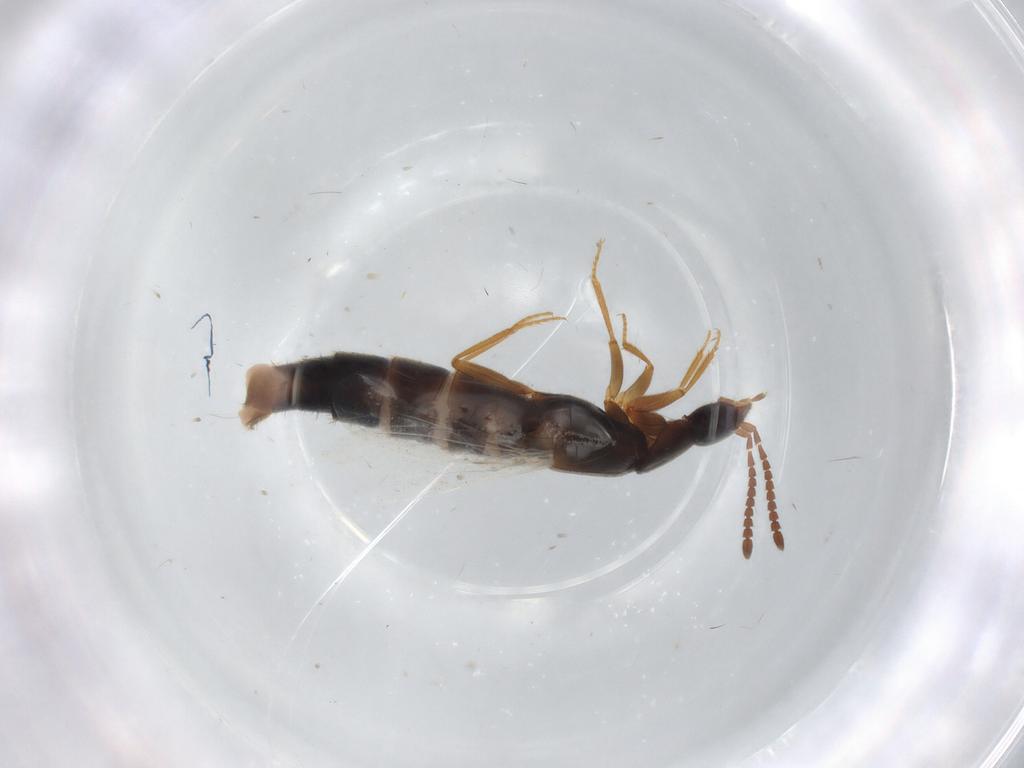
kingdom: Animalia
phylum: Arthropoda
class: Insecta
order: Coleoptera
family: Staphylinidae
